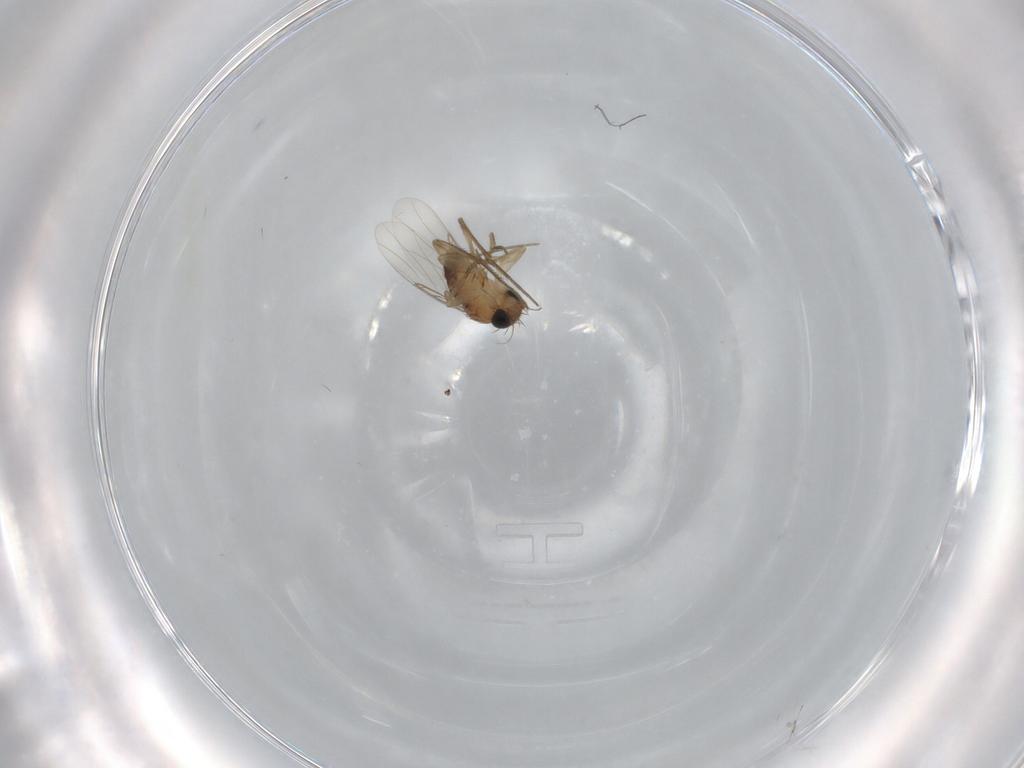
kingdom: Animalia
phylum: Arthropoda
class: Insecta
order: Diptera
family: Phoridae
